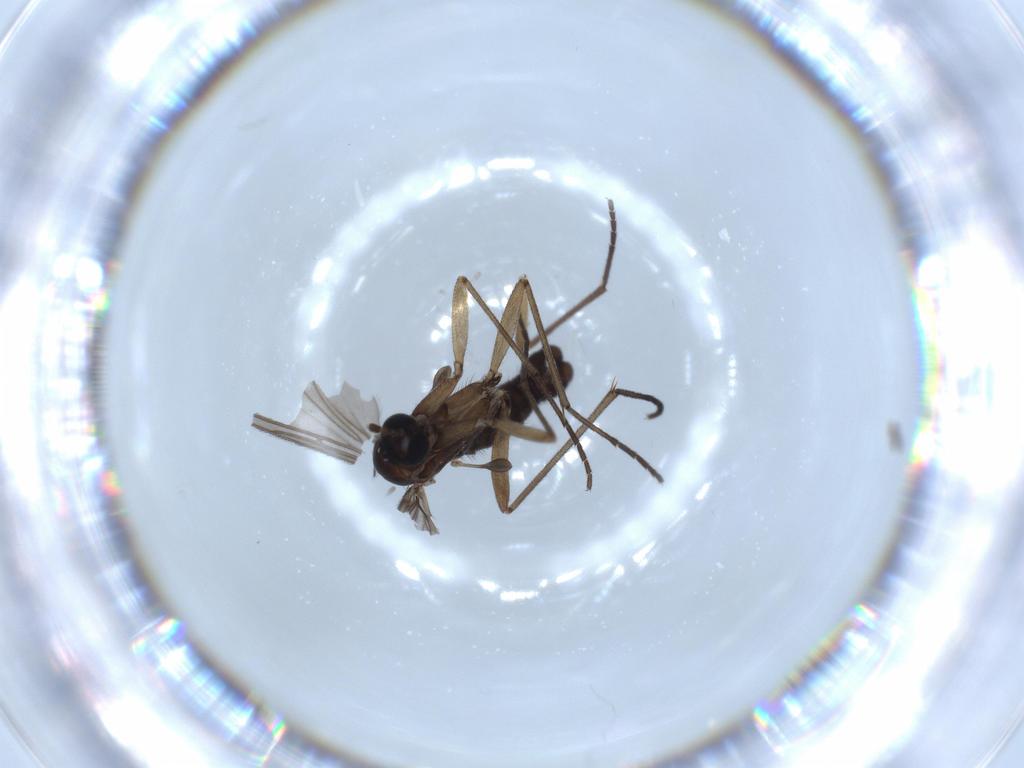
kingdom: Animalia
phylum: Arthropoda
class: Insecta
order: Diptera
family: Sciaridae
